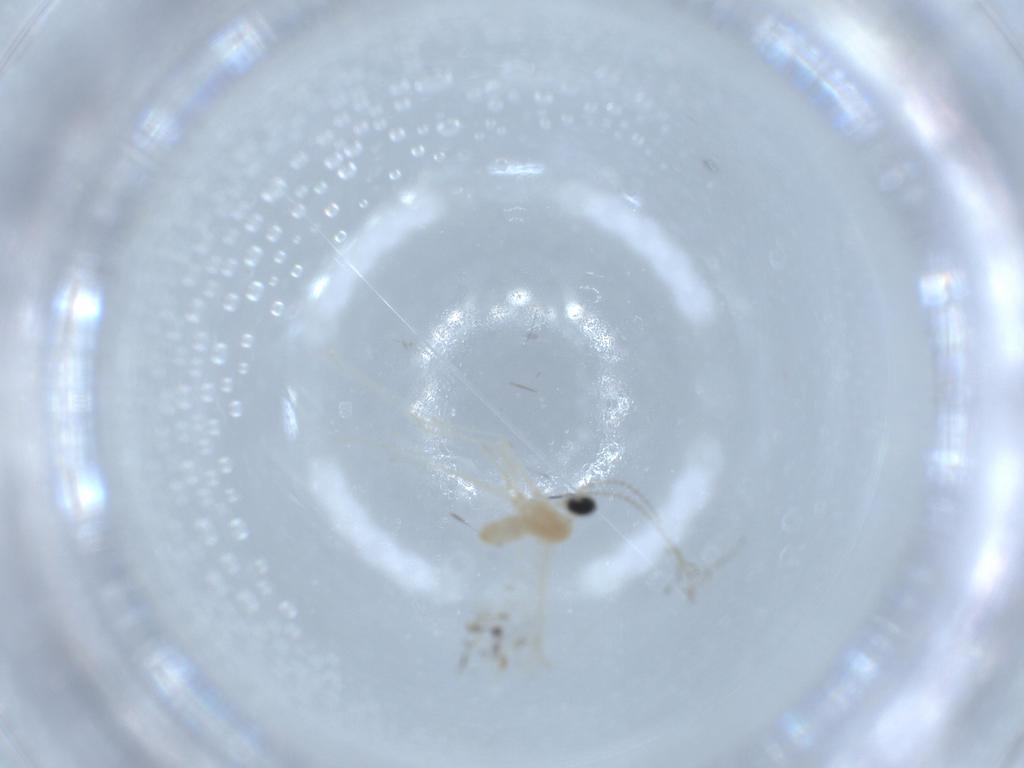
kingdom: Animalia
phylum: Arthropoda
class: Insecta
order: Diptera
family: Cecidomyiidae
